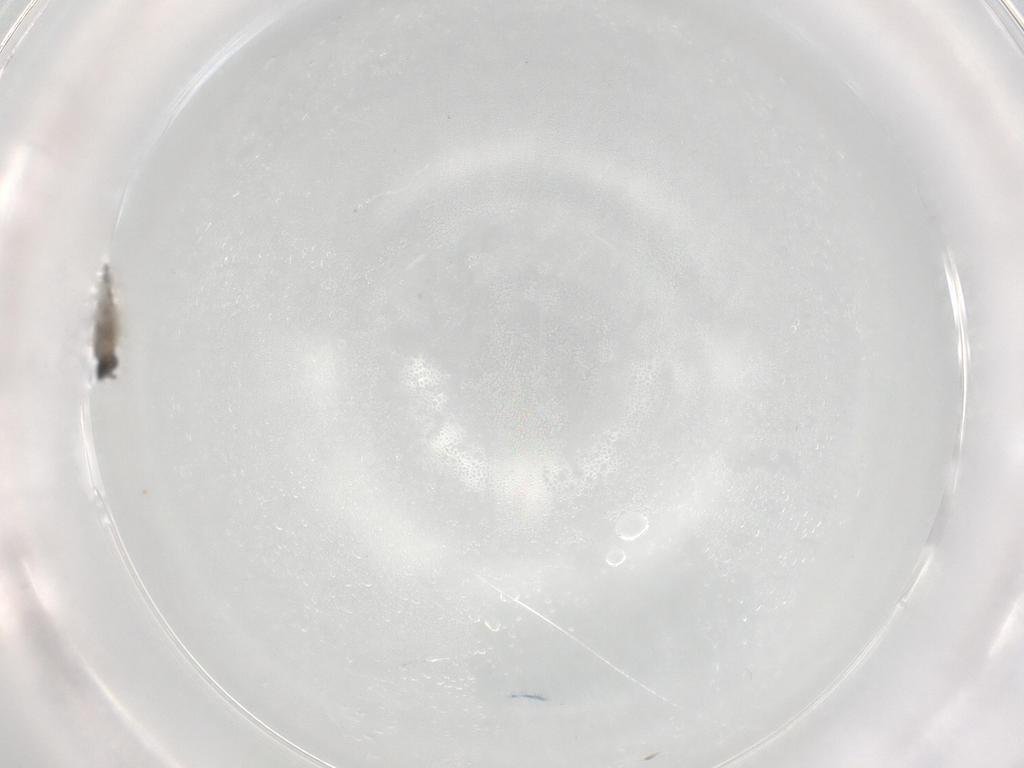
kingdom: Animalia
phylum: Arthropoda
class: Insecta
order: Diptera
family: Cecidomyiidae
